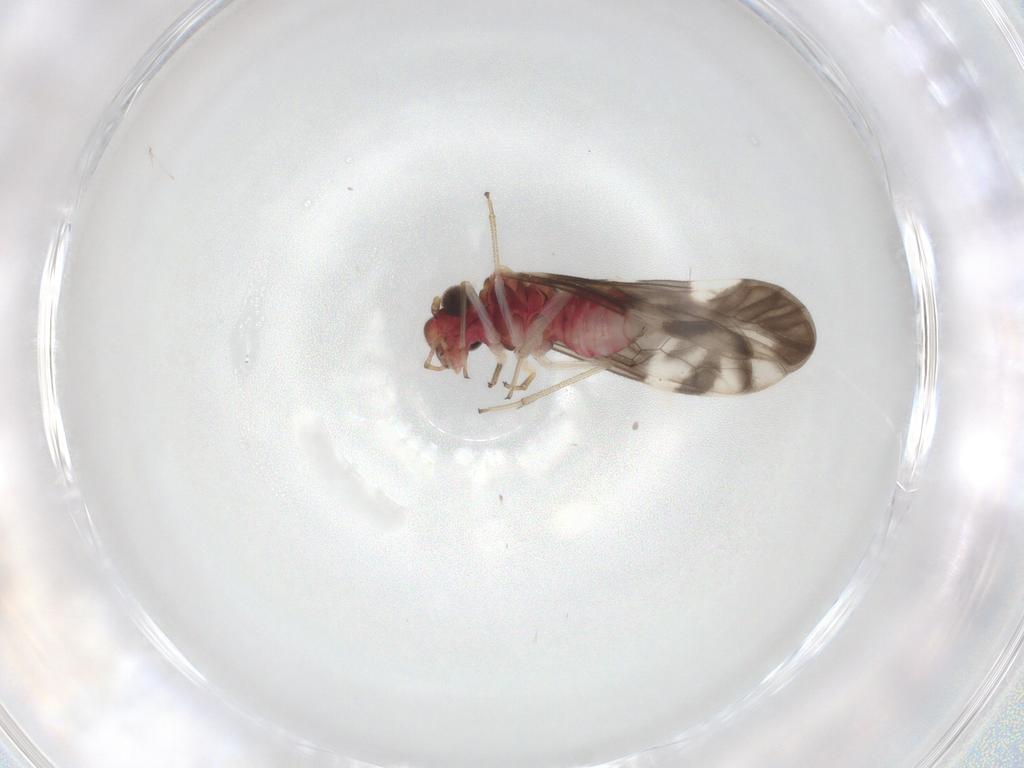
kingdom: Animalia
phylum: Arthropoda
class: Insecta
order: Psocodea
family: Caeciliusidae
